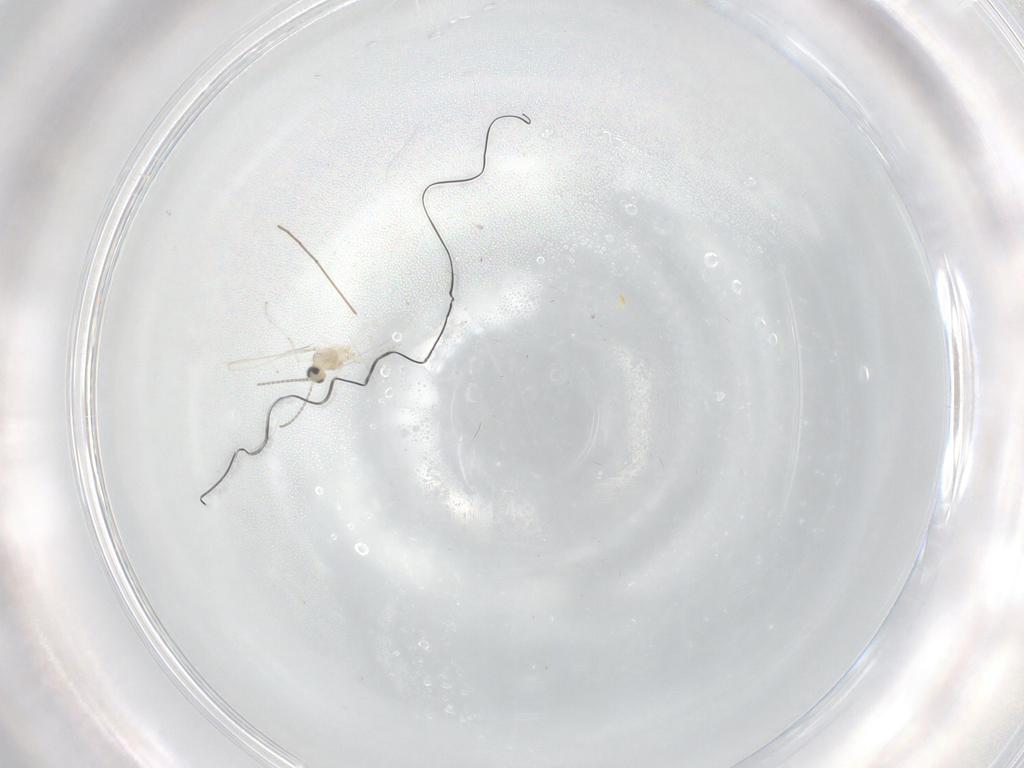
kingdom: Animalia
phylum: Arthropoda
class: Insecta
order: Diptera
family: Cecidomyiidae
